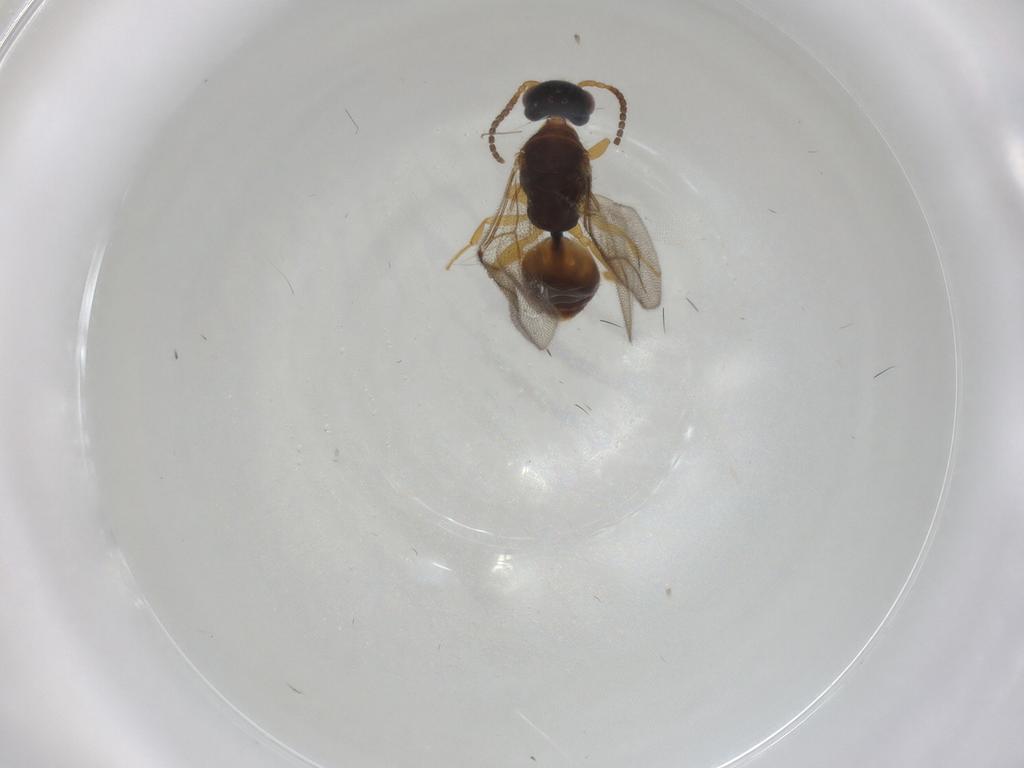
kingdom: Animalia
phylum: Arthropoda
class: Insecta
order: Hymenoptera
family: Bethylidae
